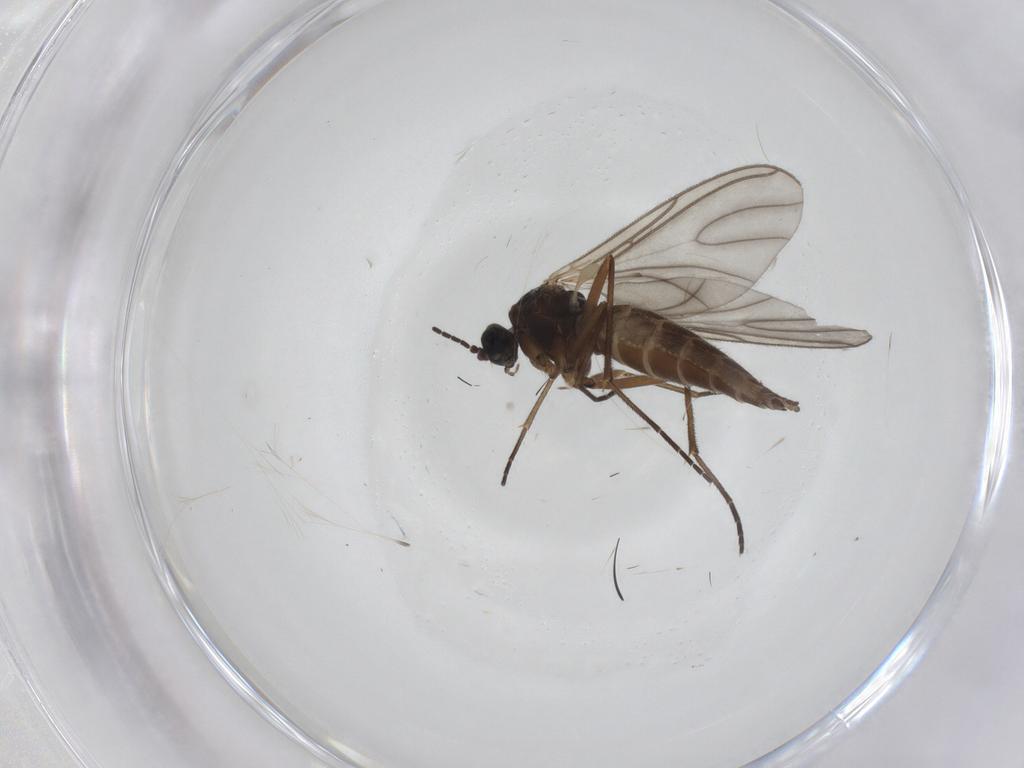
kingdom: Animalia
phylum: Arthropoda
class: Insecta
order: Diptera
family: Sciaridae
